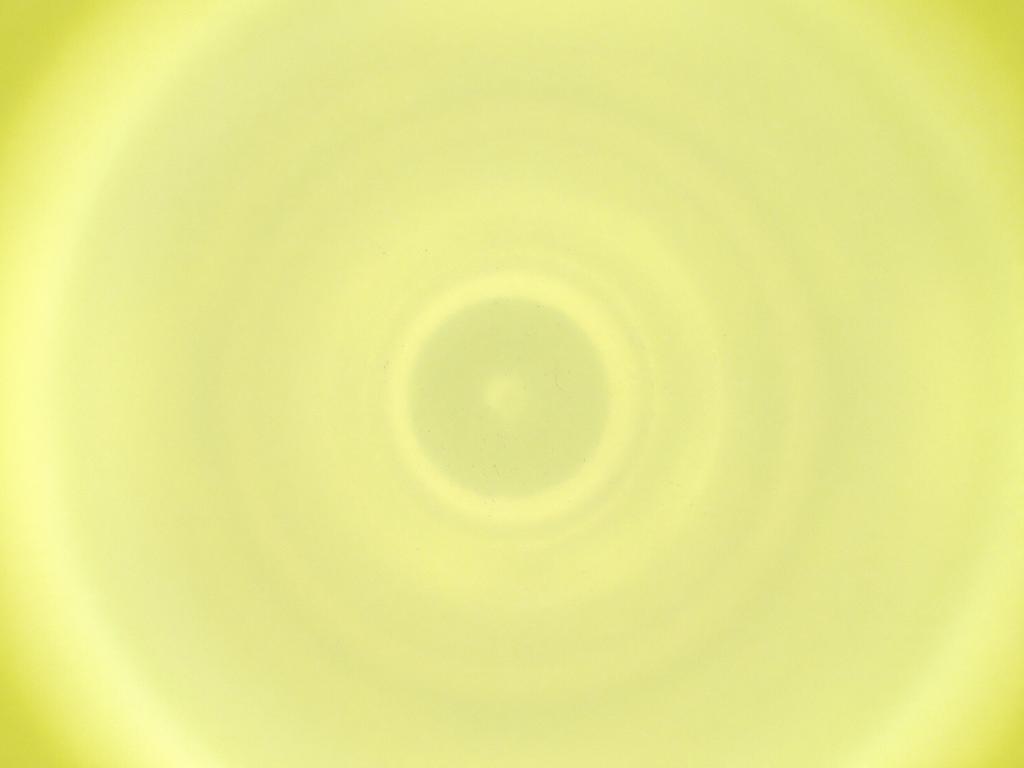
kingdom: Animalia
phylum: Arthropoda
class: Insecta
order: Diptera
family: Cecidomyiidae
